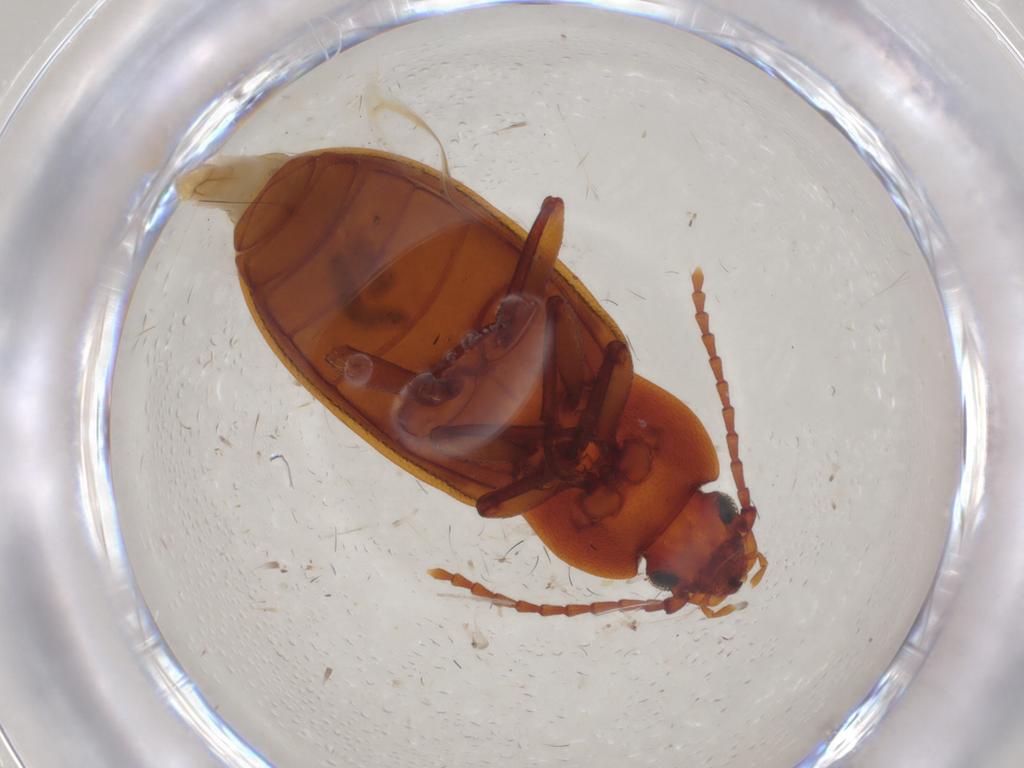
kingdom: Animalia
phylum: Arthropoda
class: Insecta
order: Coleoptera
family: Tenebrionidae
